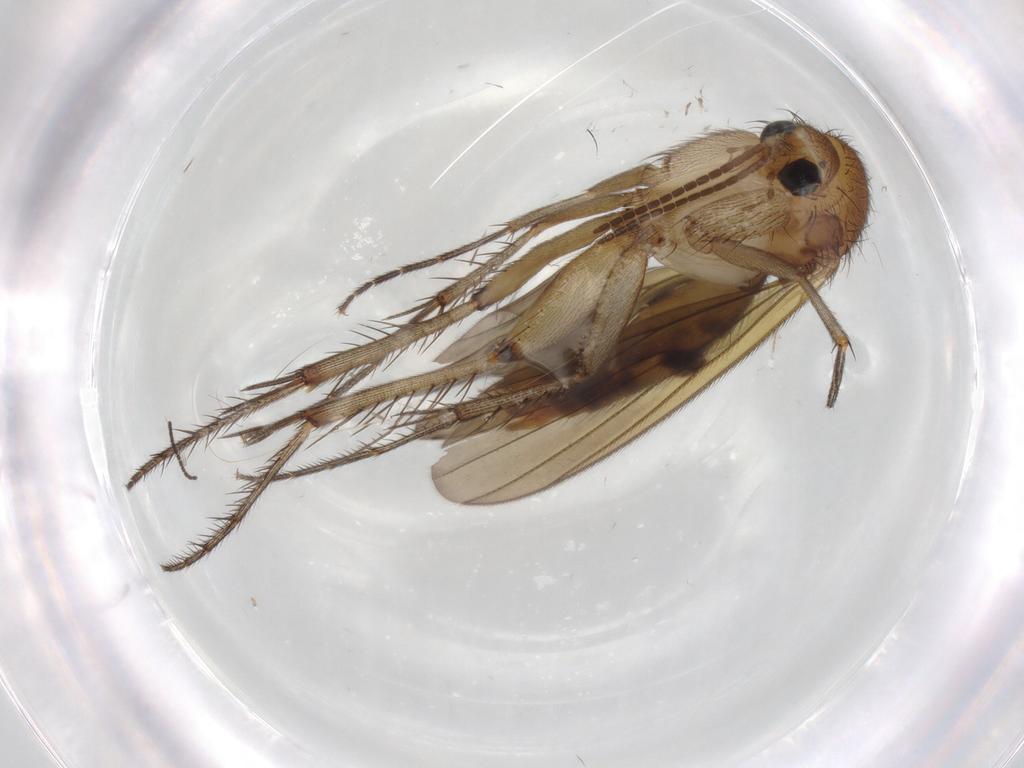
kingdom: Animalia
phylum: Arthropoda
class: Insecta
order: Diptera
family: Mycetophilidae
